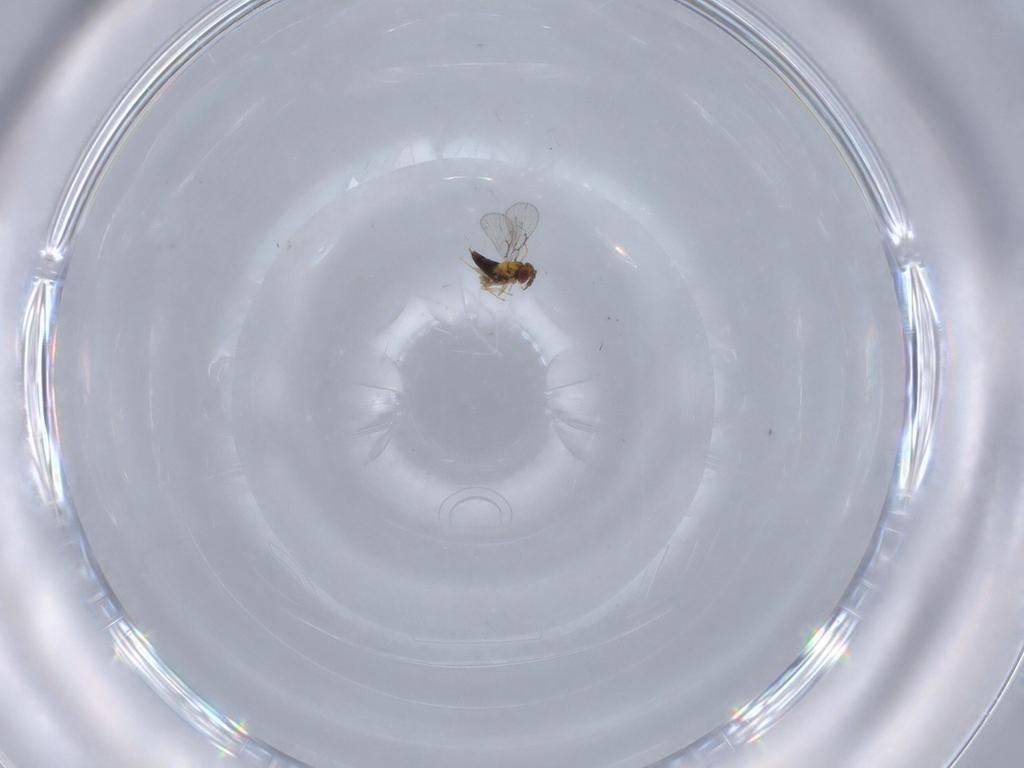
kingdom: Animalia
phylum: Arthropoda
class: Insecta
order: Hymenoptera
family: Trichogrammatidae
